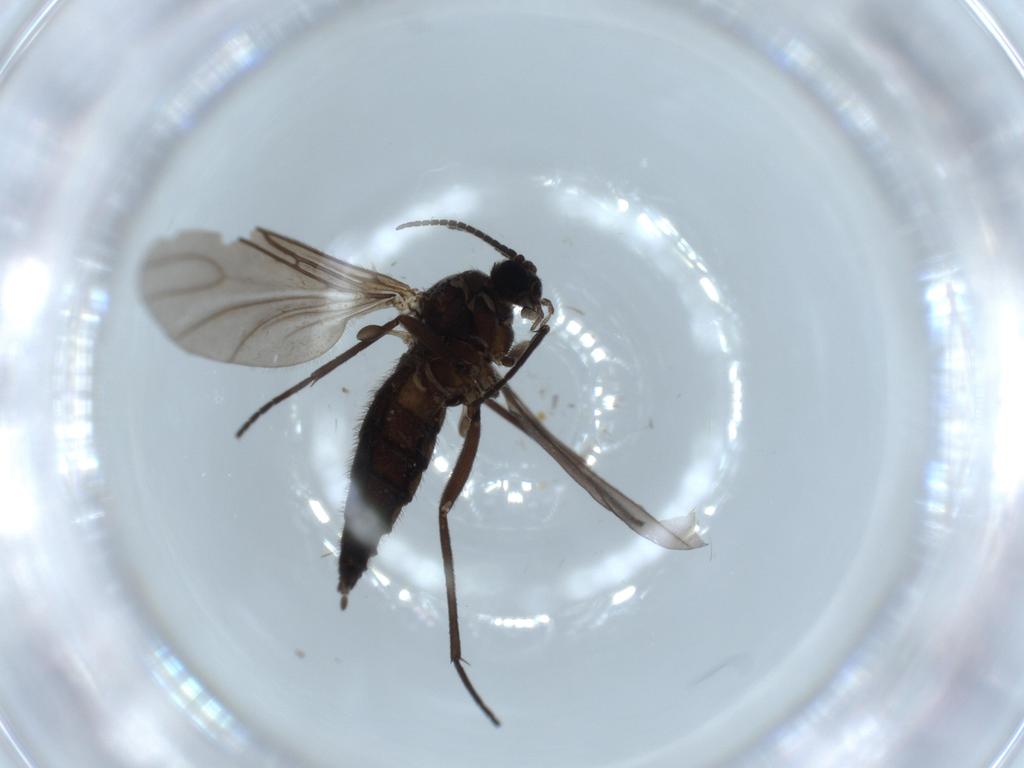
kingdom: Animalia
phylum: Arthropoda
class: Insecta
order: Diptera
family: Sciaridae
